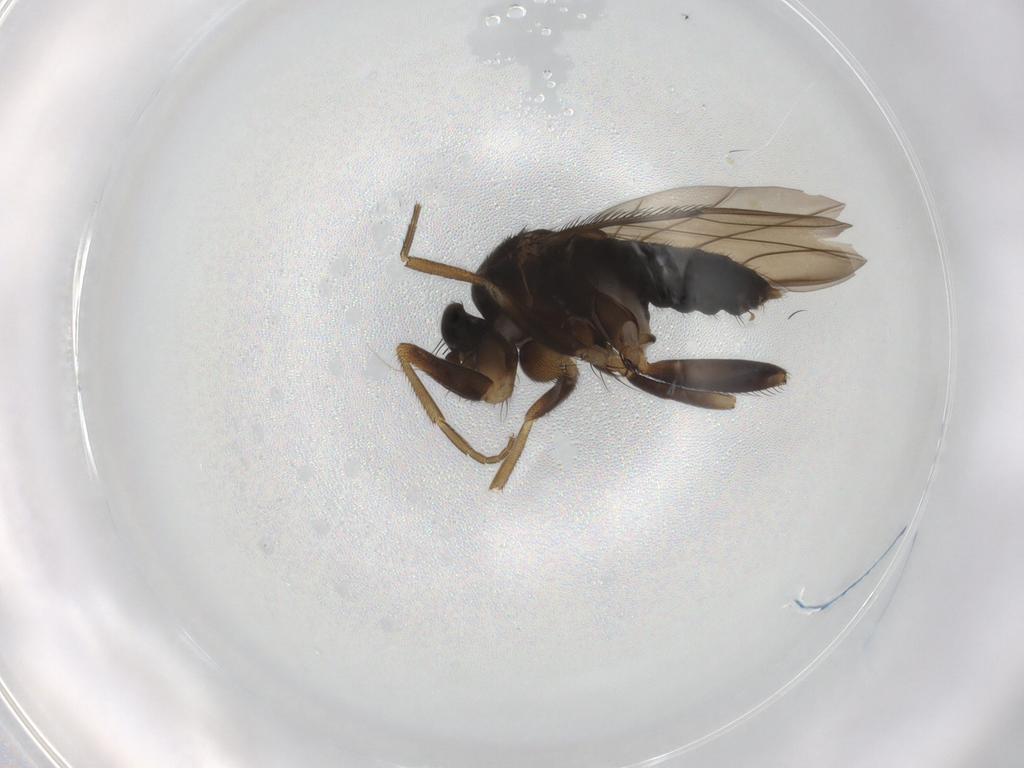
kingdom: Animalia
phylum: Arthropoda
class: Insecta
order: Diptera
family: Phoridae
